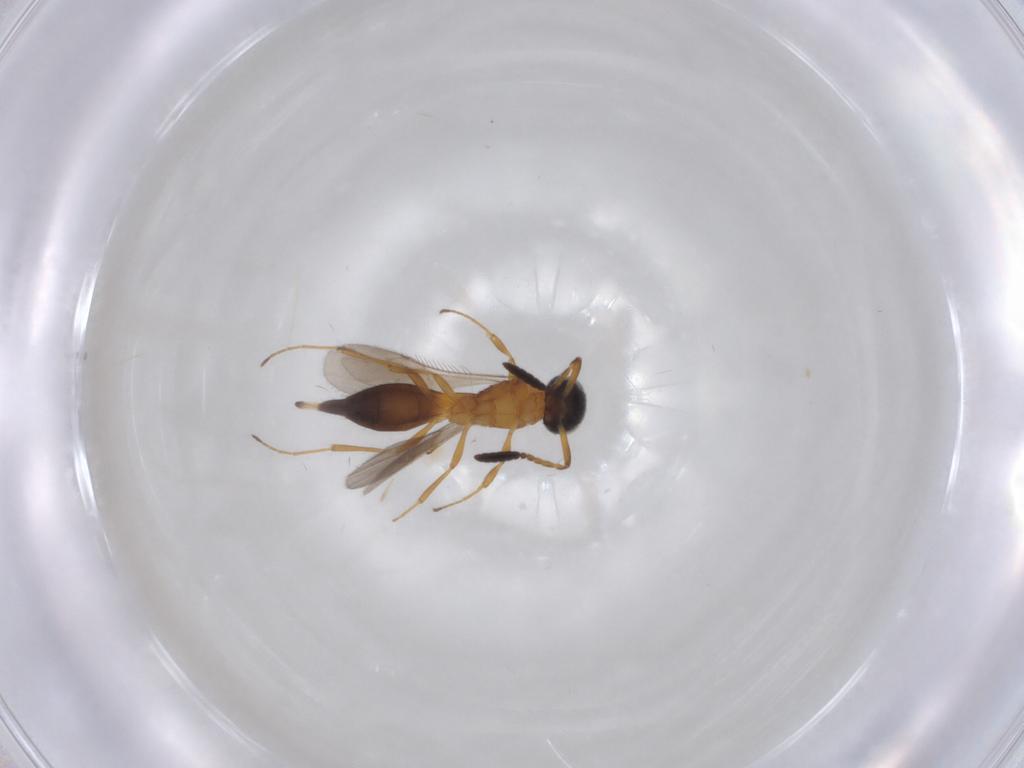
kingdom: Animalia
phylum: Arthropoda
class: Insecta
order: Hymenoptera
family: Scelionidae
